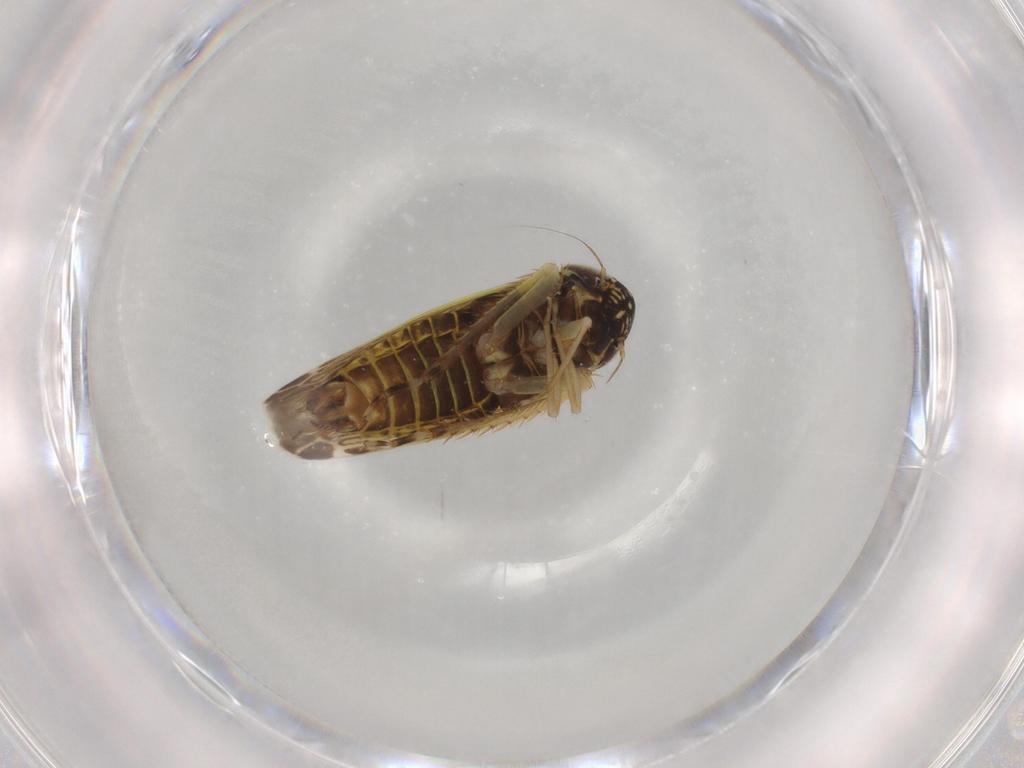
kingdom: Animalia
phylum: Arthropoda
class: Insecta
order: Hemiptera
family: Cicadellidae
